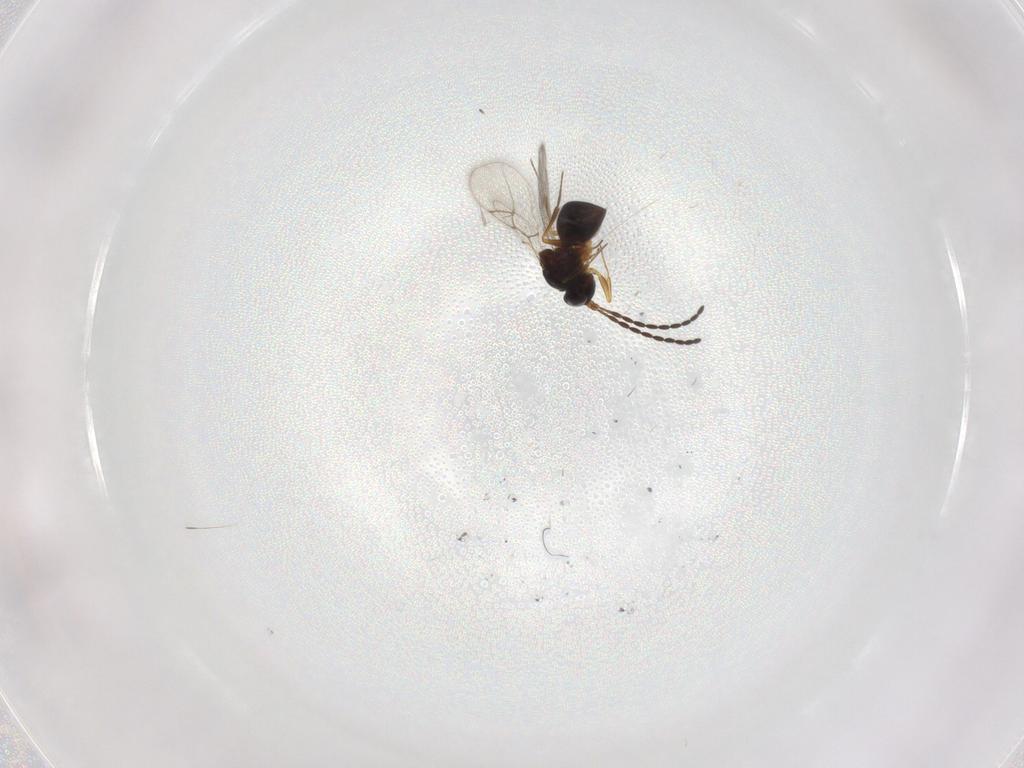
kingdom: Animalia
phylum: Arthropoda
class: Insecta
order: Hymenoptera
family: Figitidae
